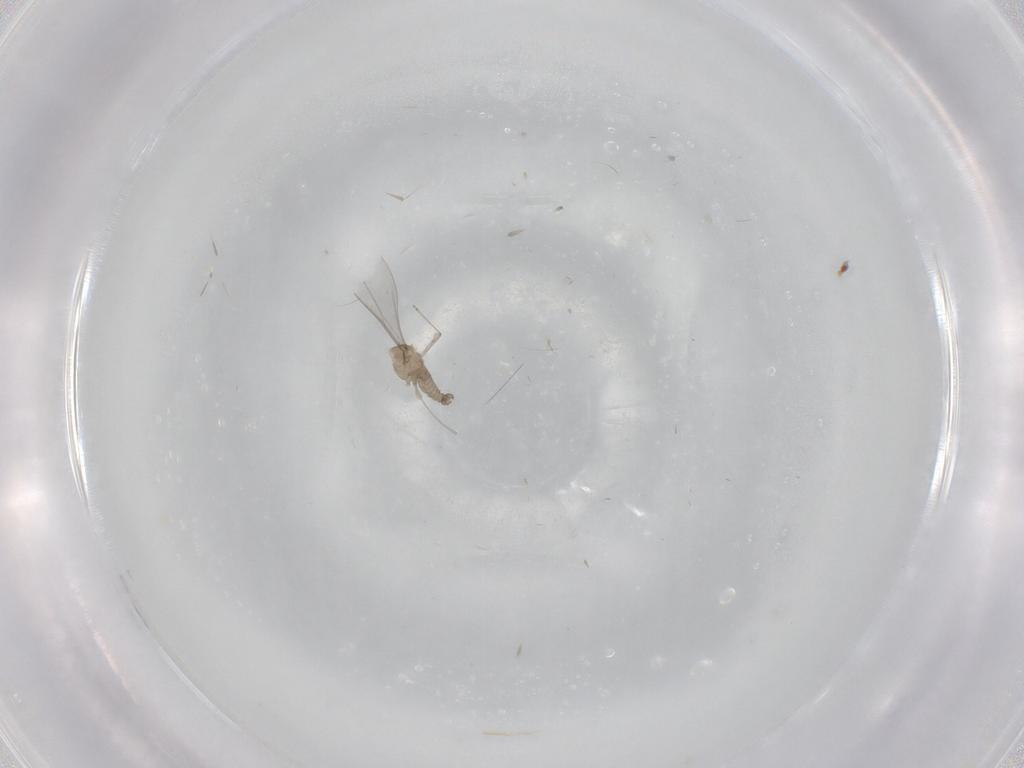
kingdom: Animalia
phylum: Arthropoda
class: Insecta
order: Diptera
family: Cecidomyiidae
